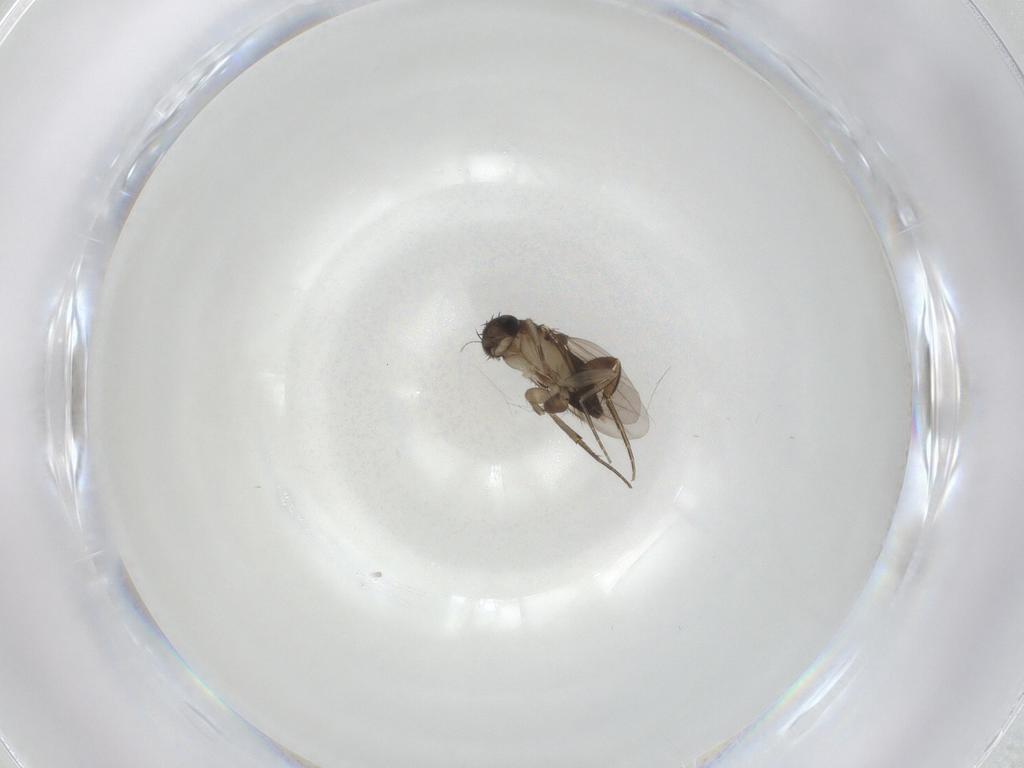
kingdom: Animalia
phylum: Arthropoda
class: Insecta
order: Diptera
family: Phoridae
